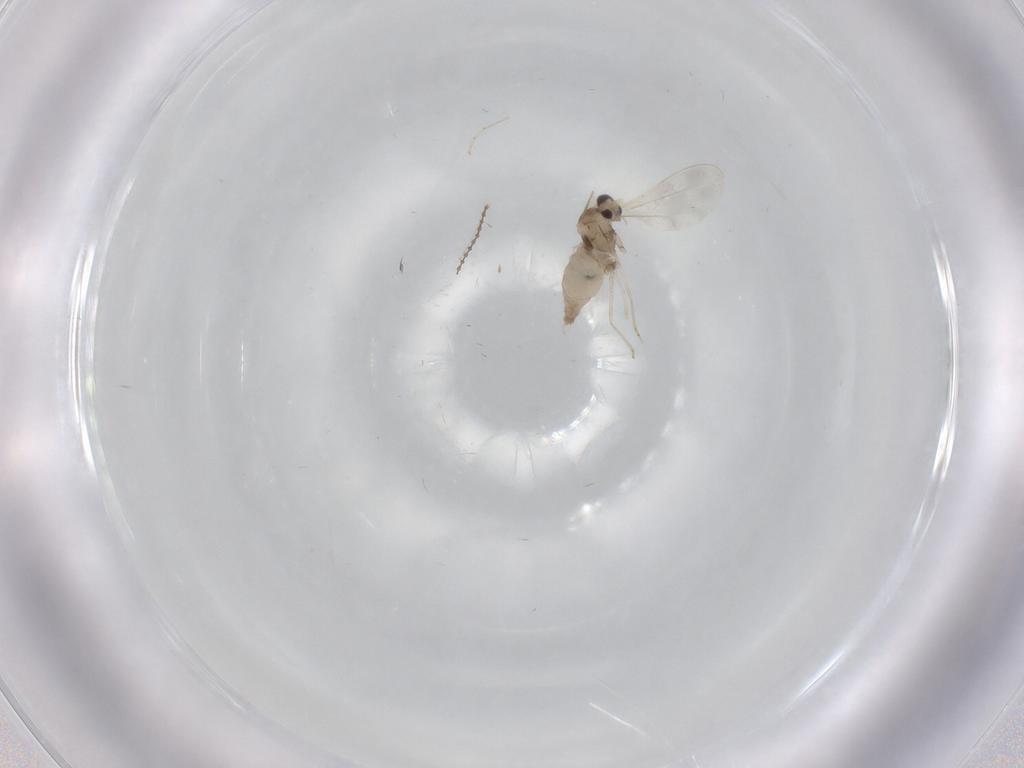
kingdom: Animalia
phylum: Arthropoda
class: Insecta
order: Diptera
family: Cecidomyiidae
